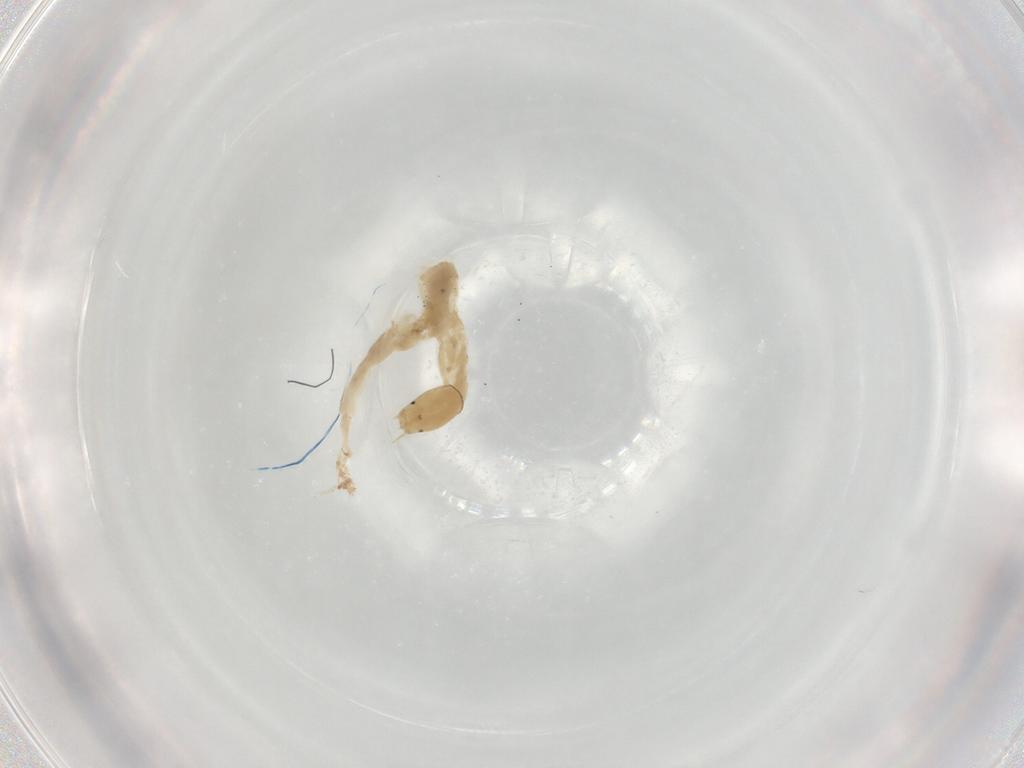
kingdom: Animalia
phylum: Arthropoda
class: Insecta
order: Diptera
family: Chironomidae
